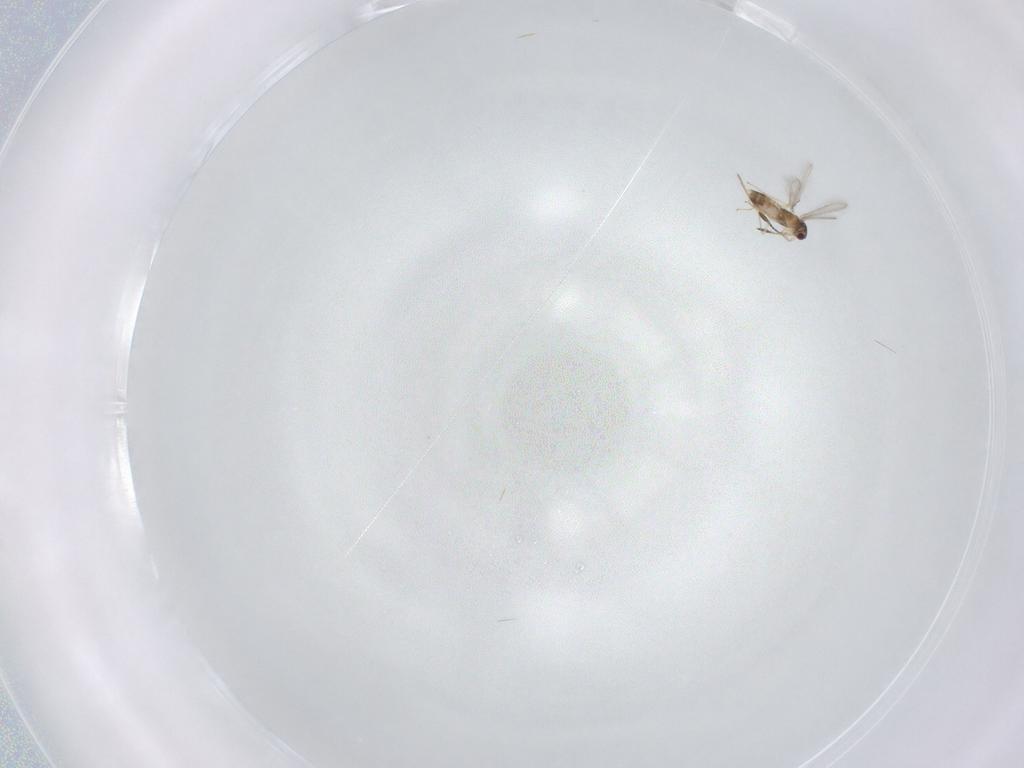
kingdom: Animalia
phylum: Arthropoda
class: Insecta
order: Hymenoptera
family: Mymaridae
